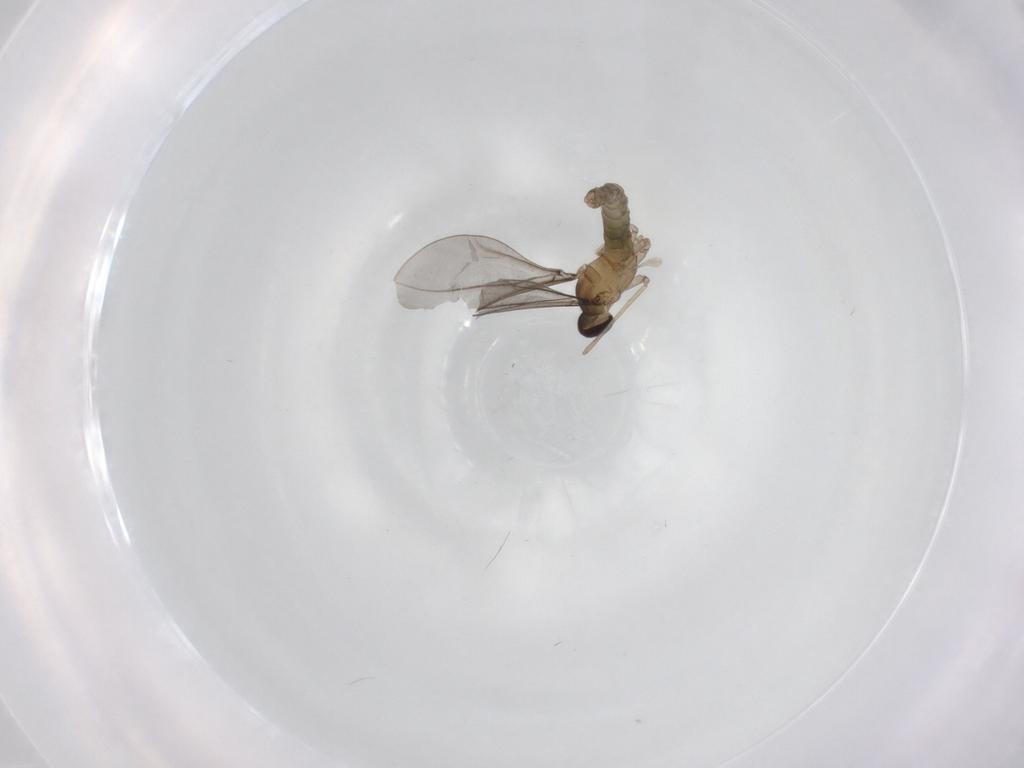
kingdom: Animalia
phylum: Arthropoda
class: Insecta
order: Diptera
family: Cecidomyiidae
